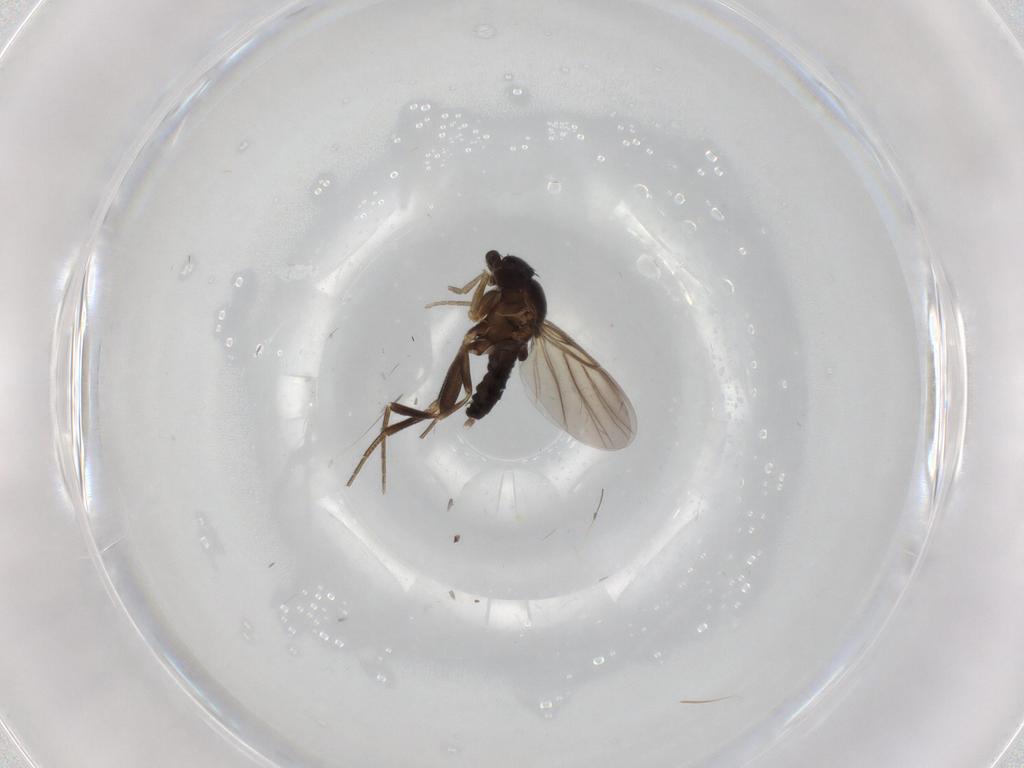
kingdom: Animalia
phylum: Arthropoda
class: Insecta
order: Diptera
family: Phoridae
